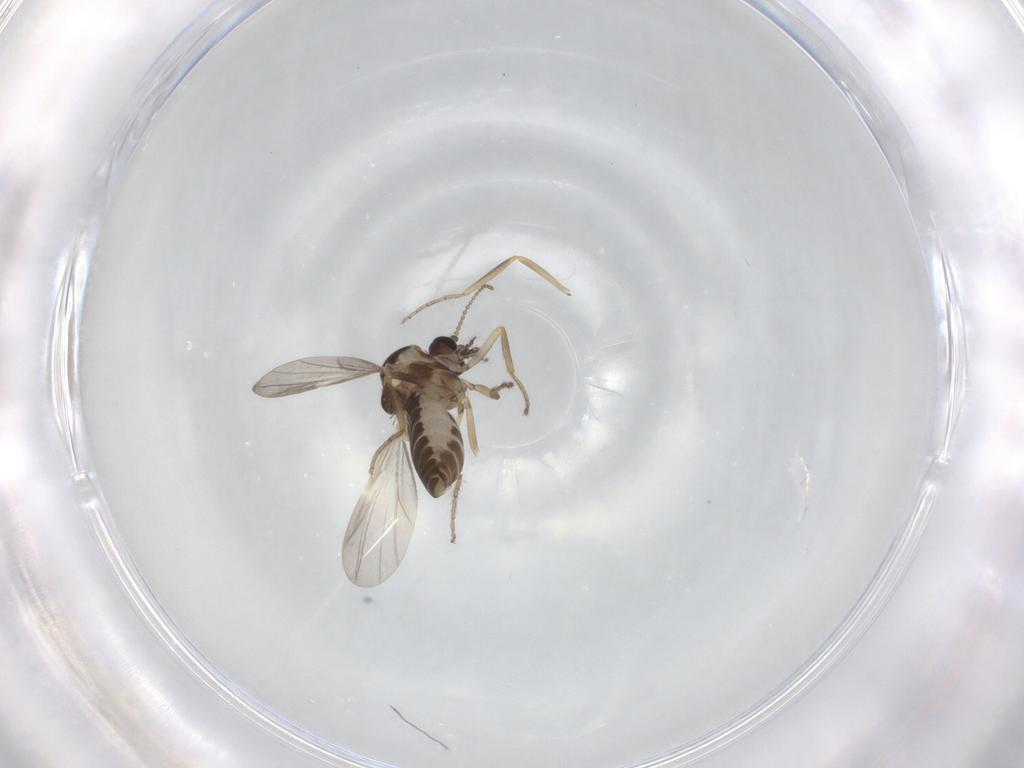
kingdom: Animalia
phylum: Arthropoda
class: Insecta
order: Diptera
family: Ceratopogonidae
